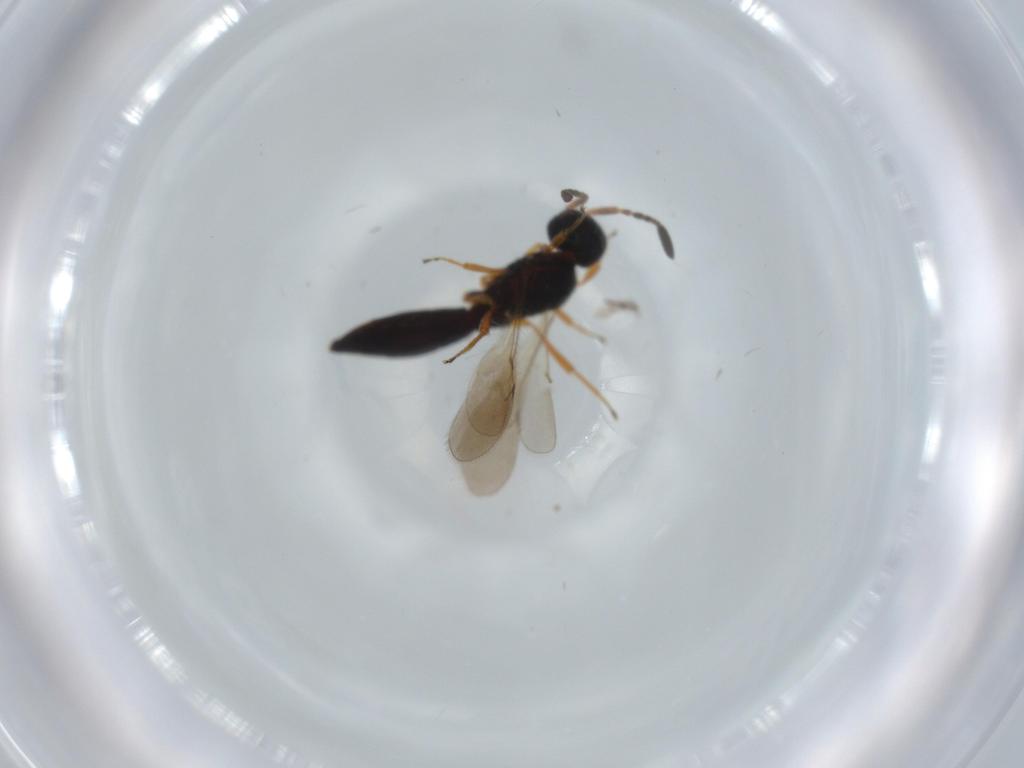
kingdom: Animalia
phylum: Arthropoda
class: Insecta
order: Hymenoptera
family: Scelionidae
